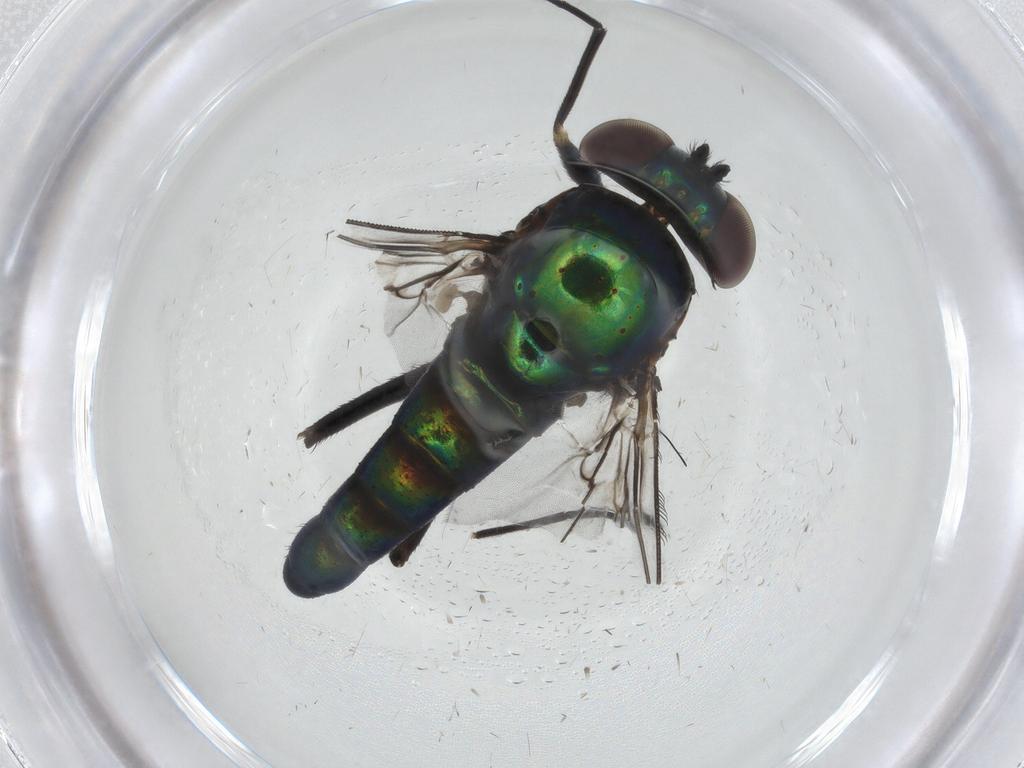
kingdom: Animalia
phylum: Arthropoda
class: Insecta
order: Diptera
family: Dolichopodidae
